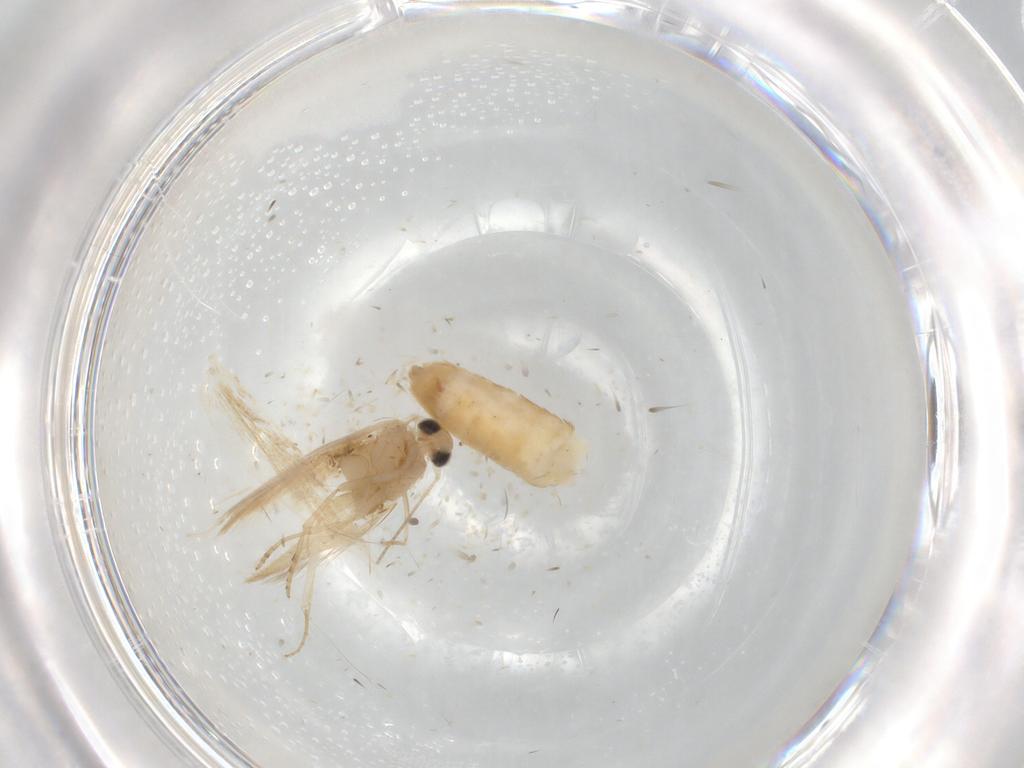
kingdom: Animalia
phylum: Arthropoda
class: Insecta
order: Lepidoptera
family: Bucculatricidae
